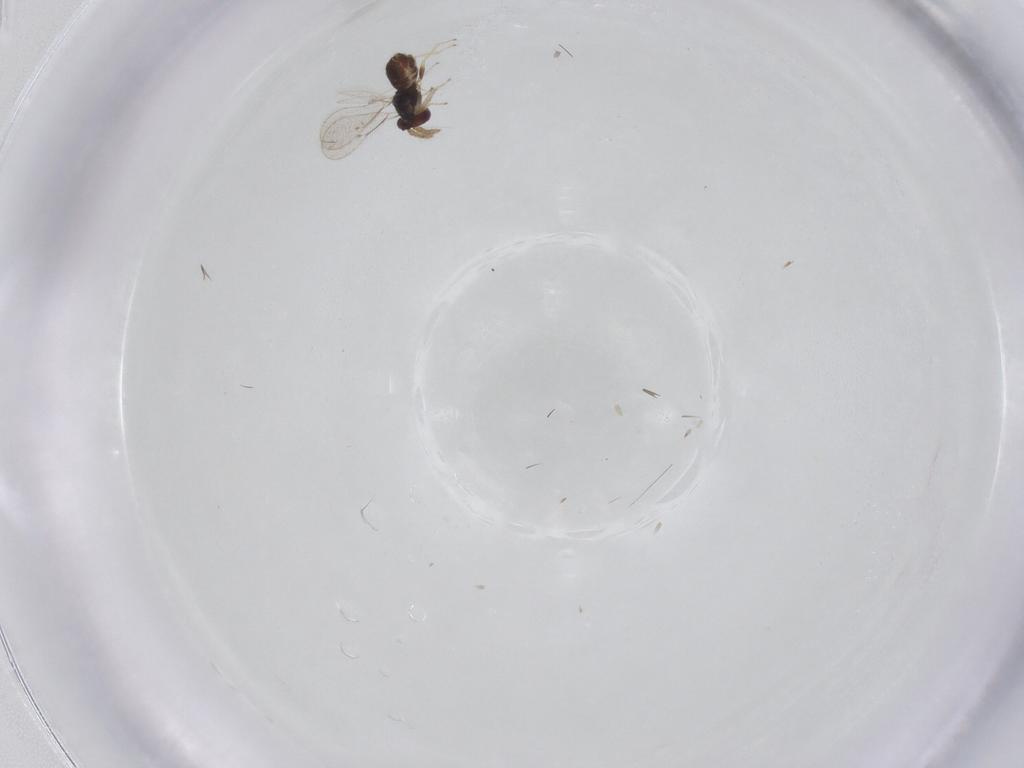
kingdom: Animalia
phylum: Arthropoda
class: Insecta
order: Hymenoptera
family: Eulophidae
